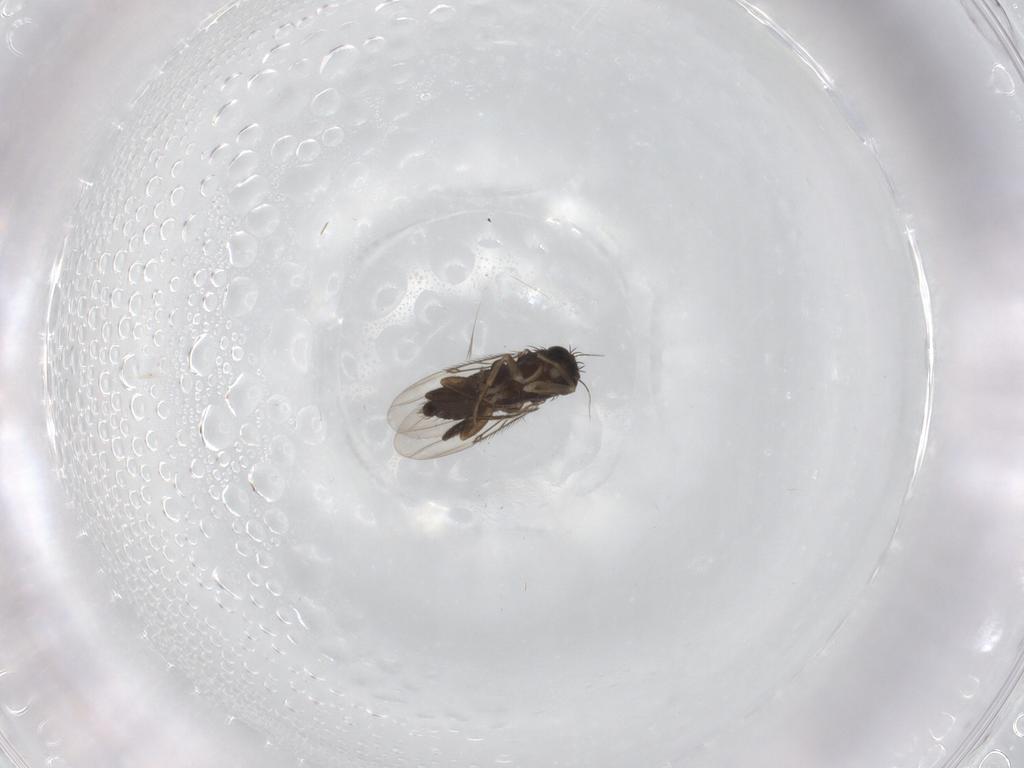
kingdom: Animalia
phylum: Arthropoda
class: Insecta
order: Diptera
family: Phoridae
